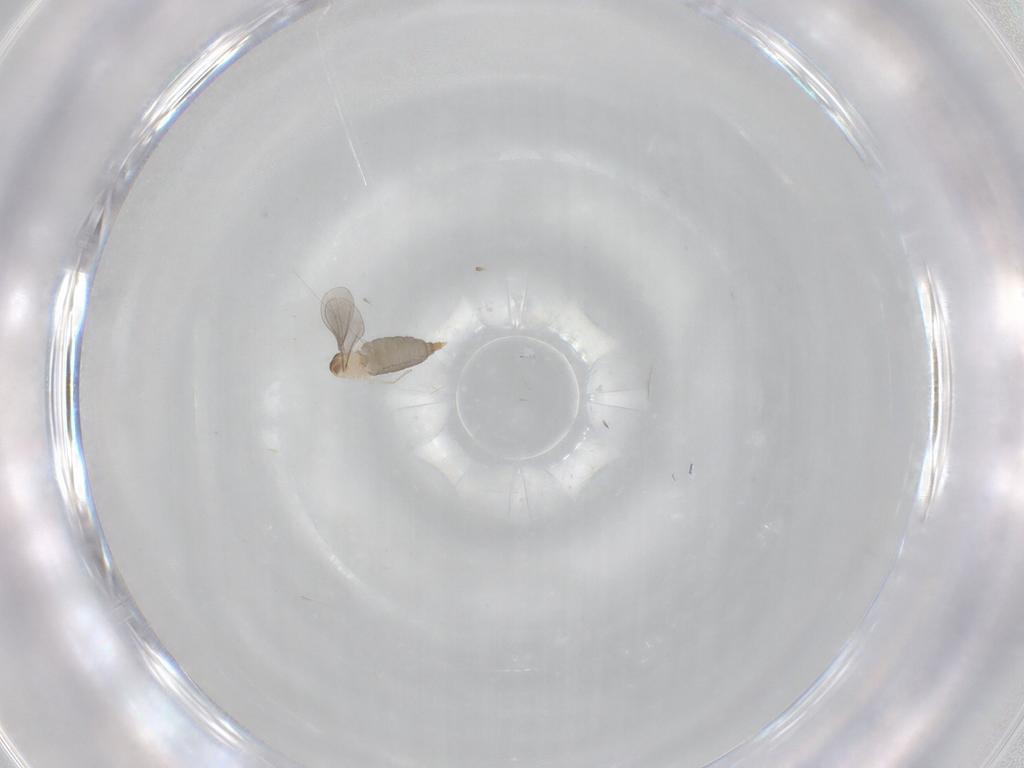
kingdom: Animalia
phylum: Arthropoda
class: Insecta
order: Diptera
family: Cecidomyiidae
